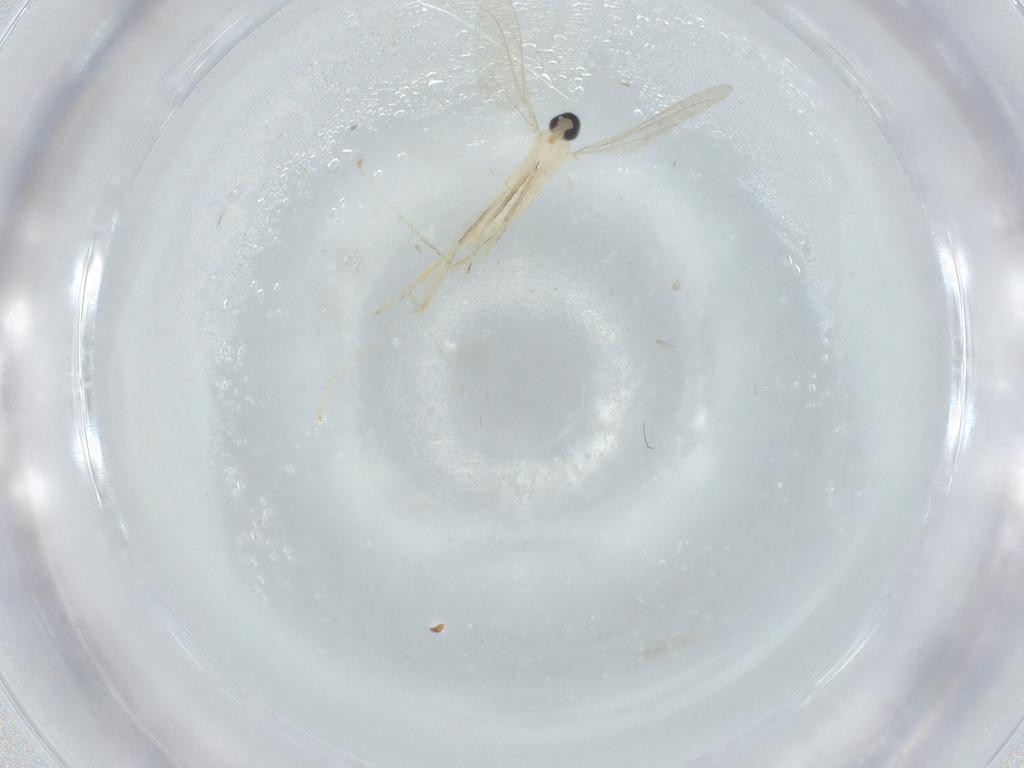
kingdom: Animalia
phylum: Arthropoda
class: Insecta
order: Diptera
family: Cecidomyiidae
